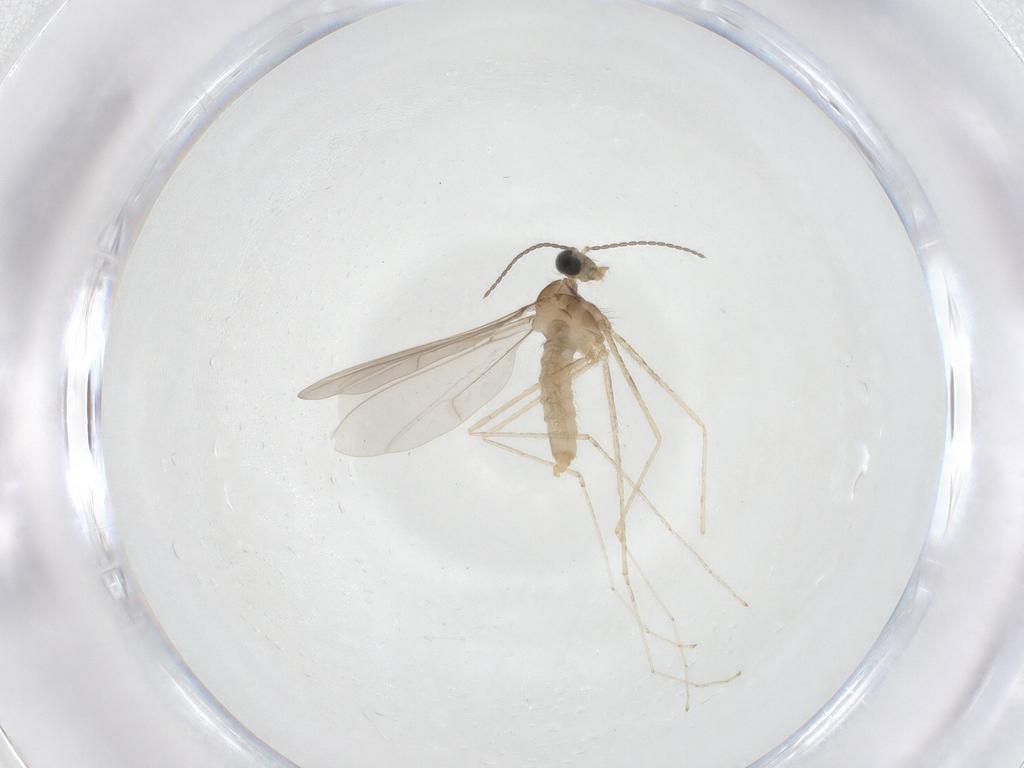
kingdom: Animalia
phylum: Arthropoda
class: Insecta
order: Diptera
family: Cecidomyiidae
